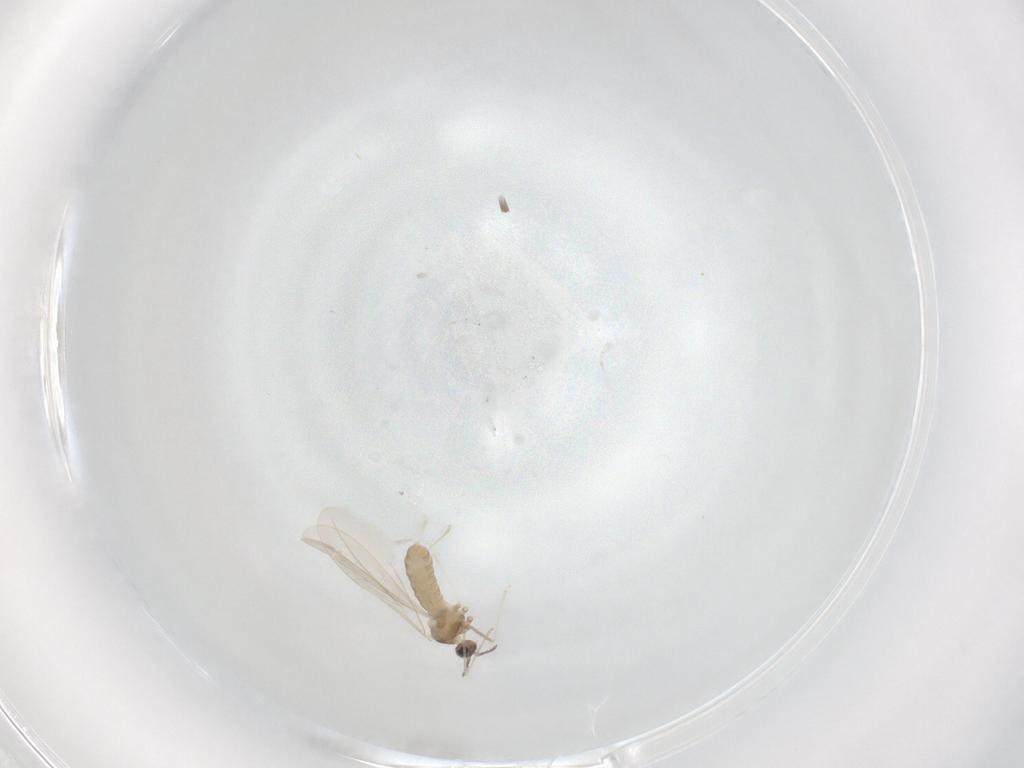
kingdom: Animalia
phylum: Arthropoda
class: Insecta
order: Diptera
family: Cecidomyiidae
